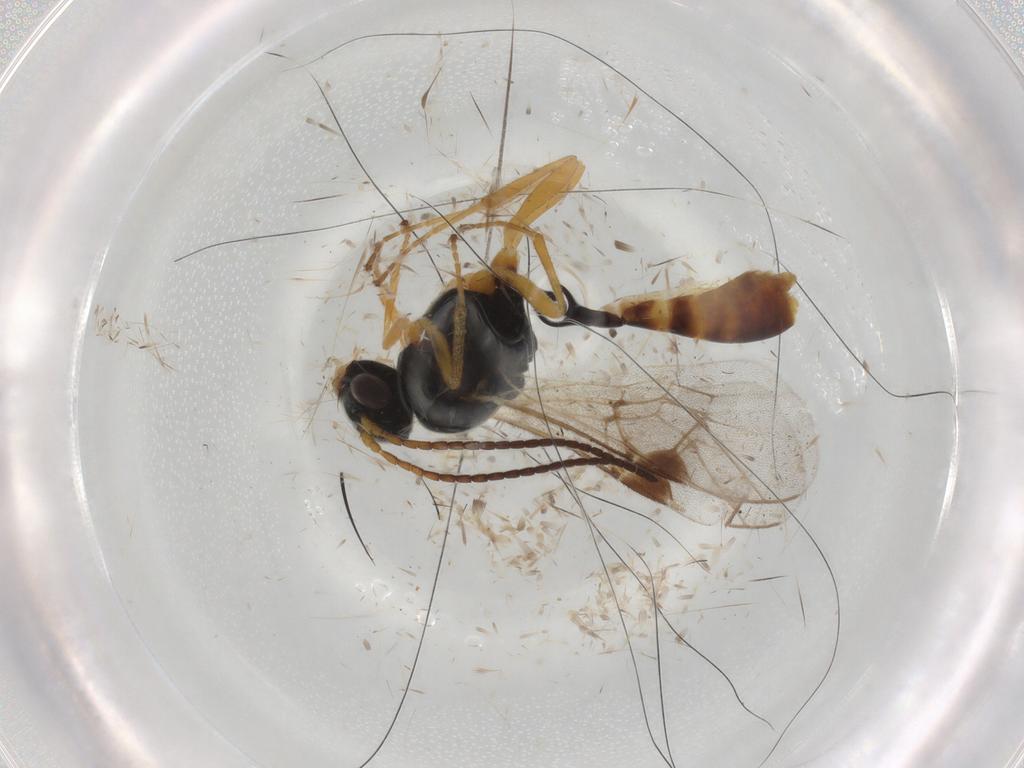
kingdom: Animalia
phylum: Arthropoda
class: Insecta
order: Hymenoptera
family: Ichneumonidae
